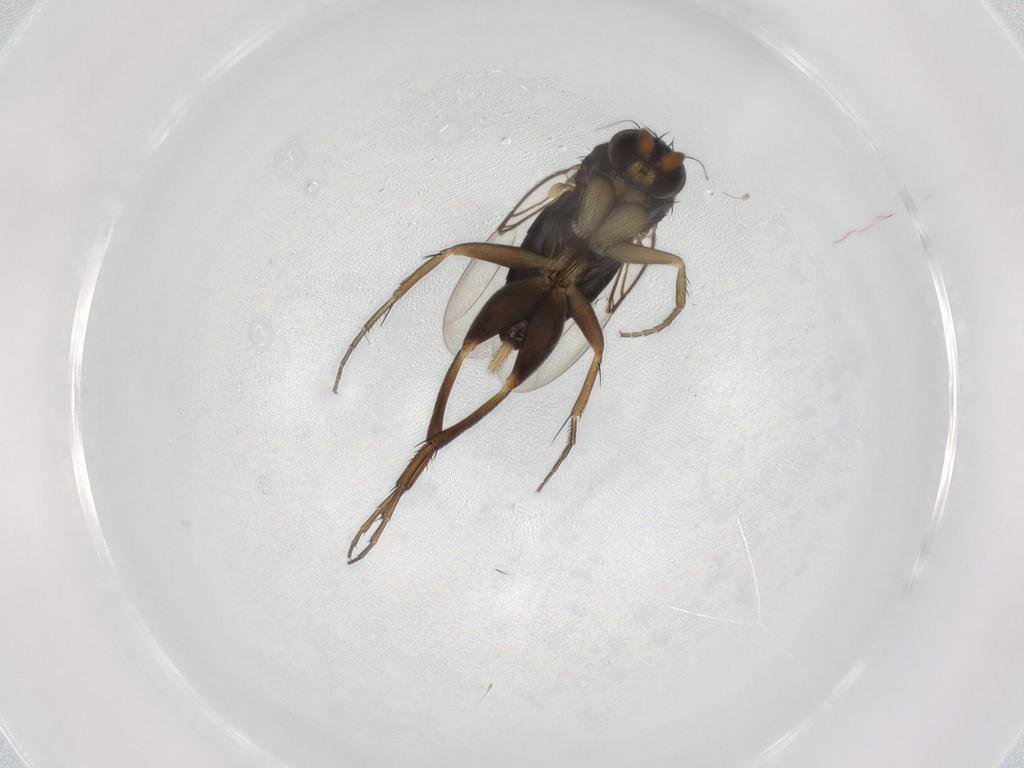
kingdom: Animalia
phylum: Arthropoda
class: Insecta
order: Diptera
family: Phoridae
